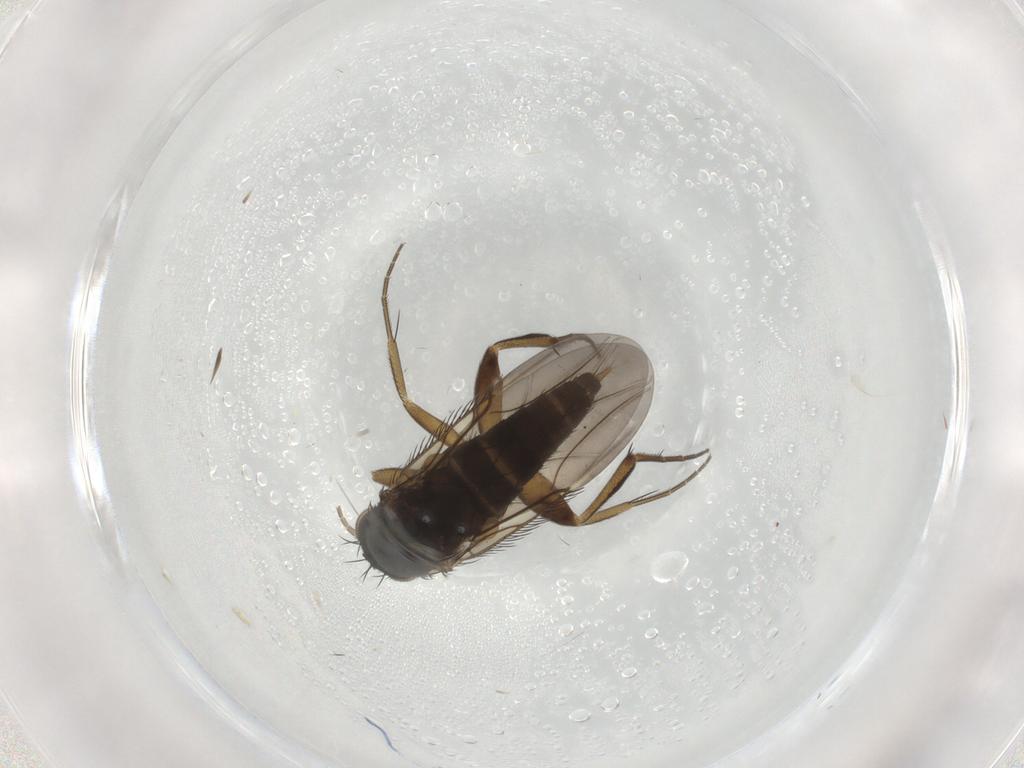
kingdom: Animalia
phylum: Arthropoda
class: Insecta
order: Diptera
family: Phoridae
